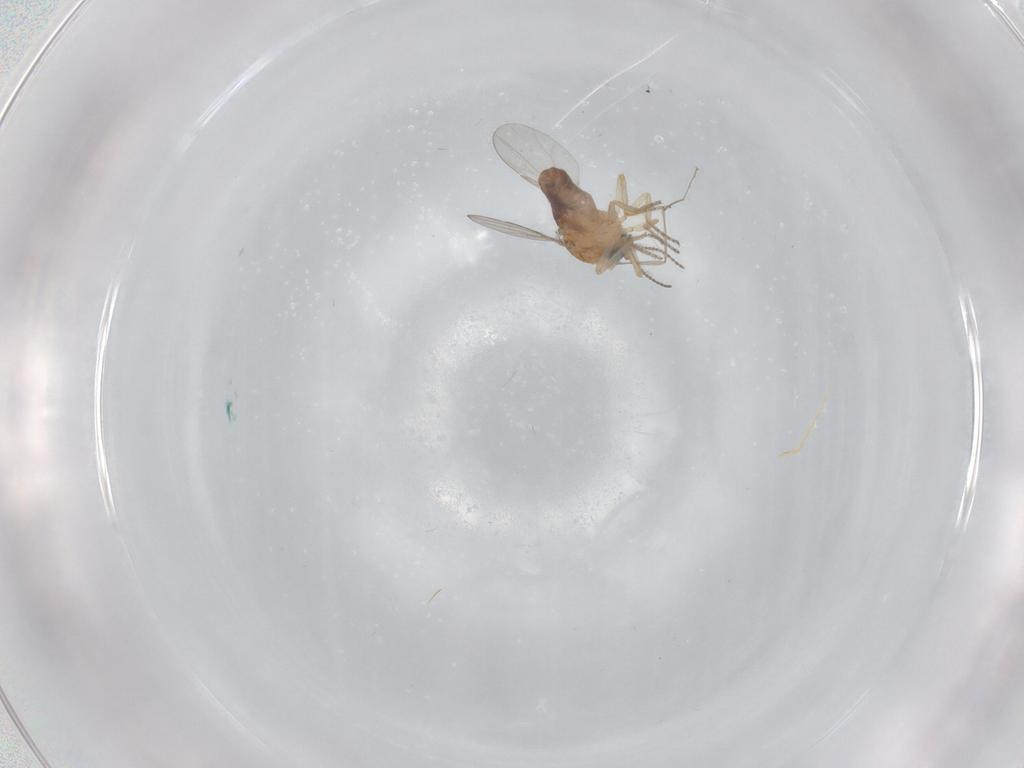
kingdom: Animalia
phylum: Arthropoda
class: Insecta
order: Diptera
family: Ceratopogonidae
